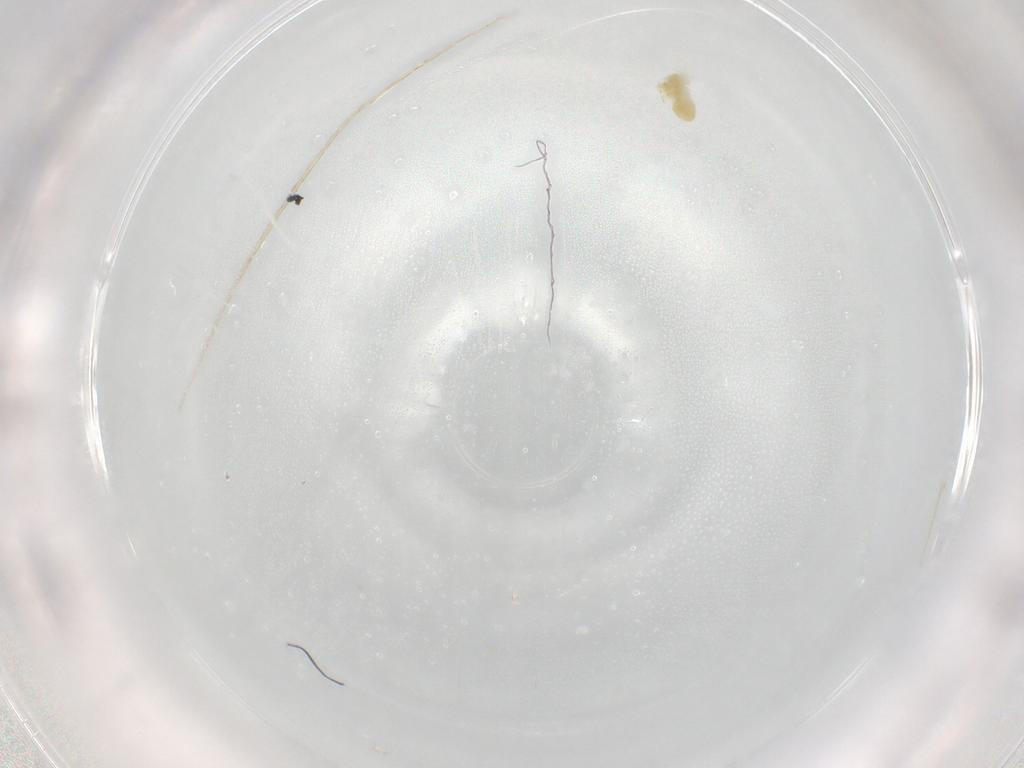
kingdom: Animalia
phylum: Arthropoda
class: Arachnida
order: Trombidiformes
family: Eupodidae
